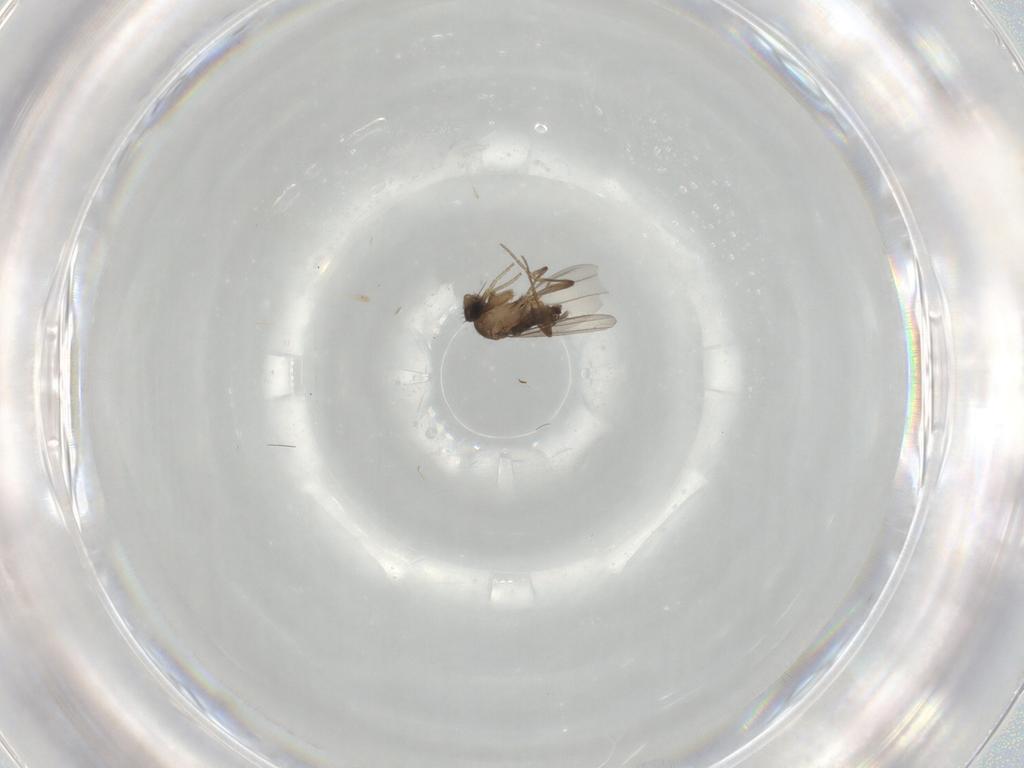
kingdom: Animalia
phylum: Arthropoda
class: Insecta
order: Diptera
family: Phoridae
